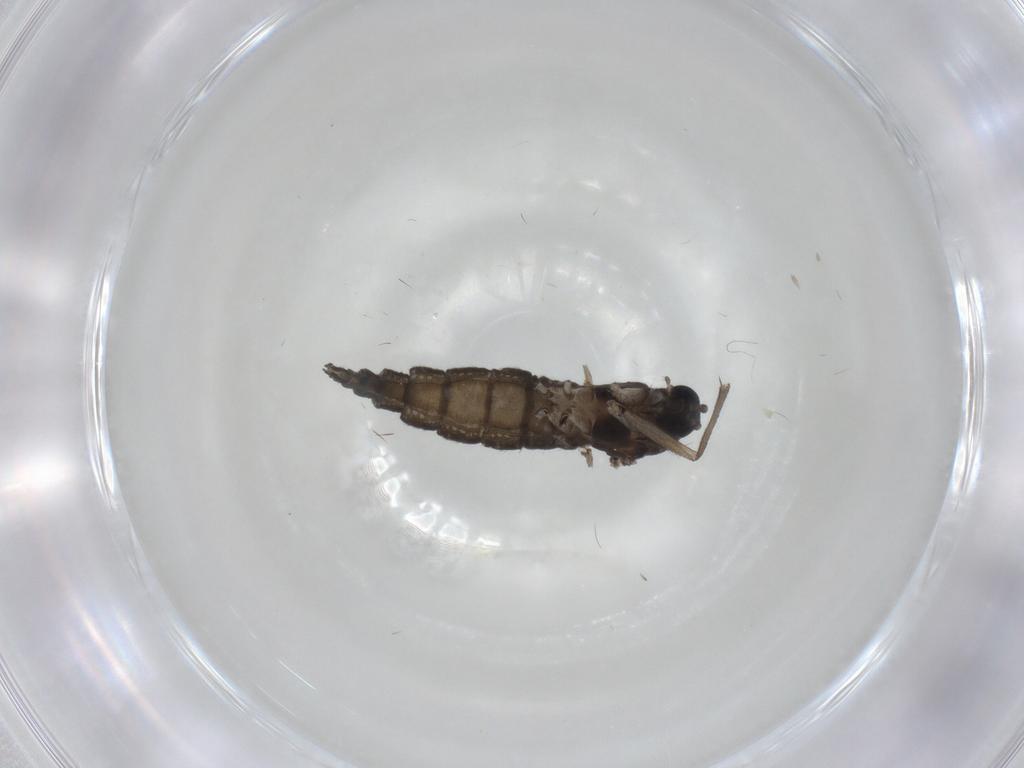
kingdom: Animalia
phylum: Arthropoda
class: Insecta
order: Diptera
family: Sciaridae
